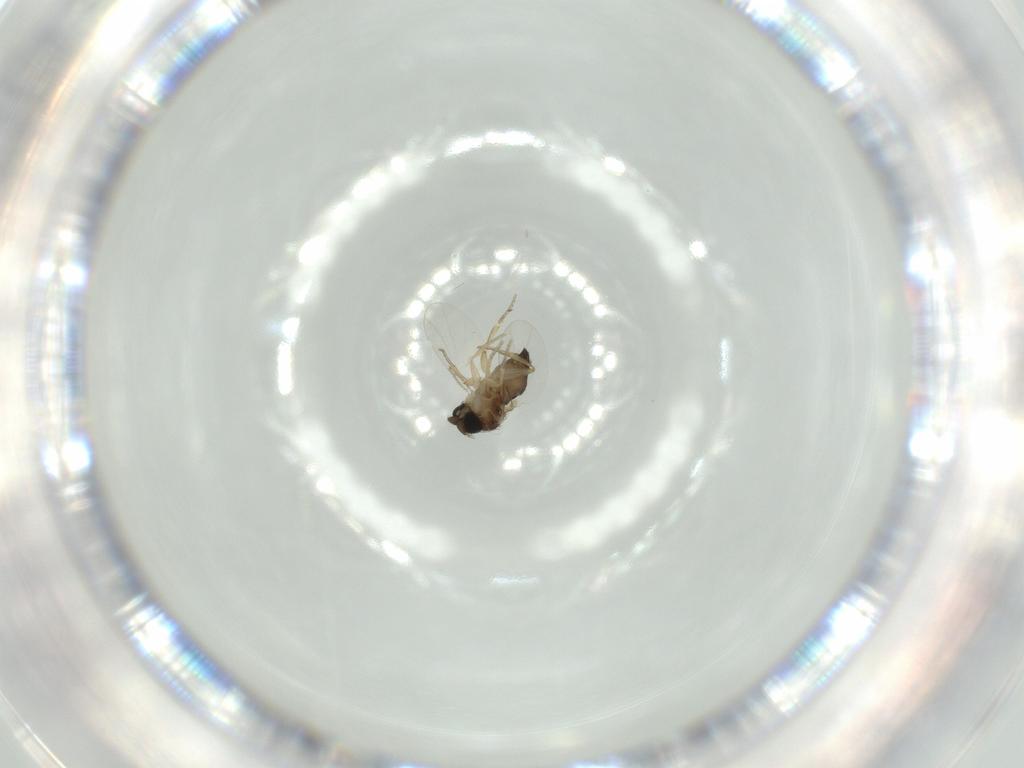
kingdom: Animalia
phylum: Arthropoda
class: Insecta
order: Diptera
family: Phoridae
